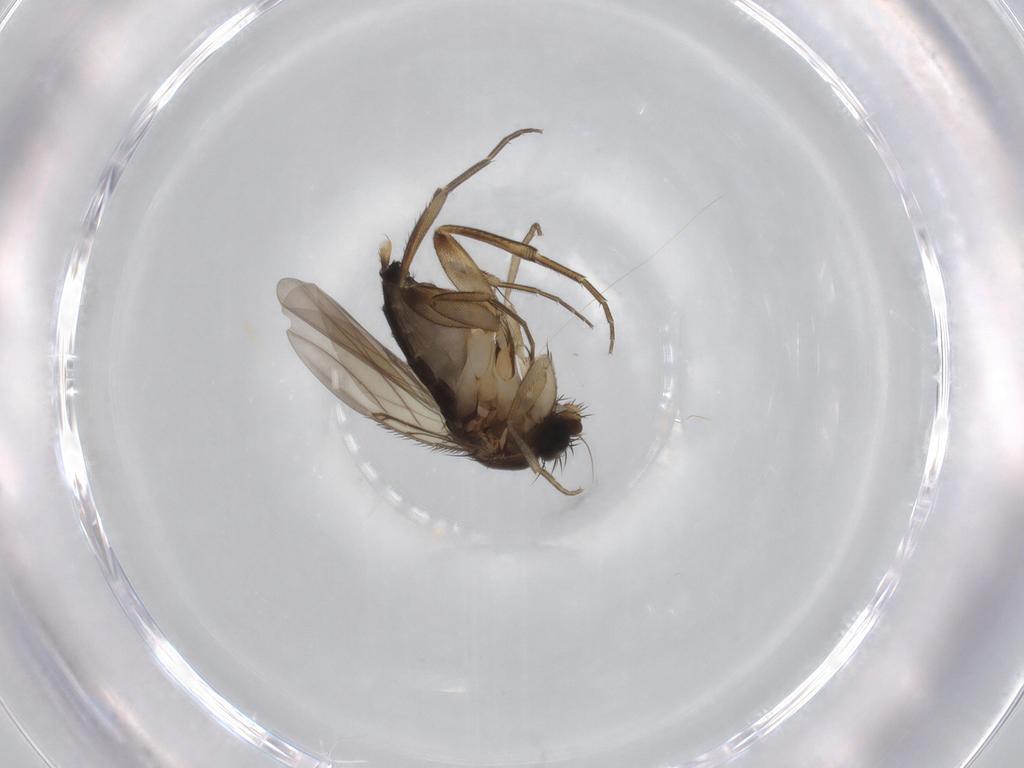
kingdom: Animalia
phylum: Arthropoda
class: Insecta
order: Diptera
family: Phoridae
